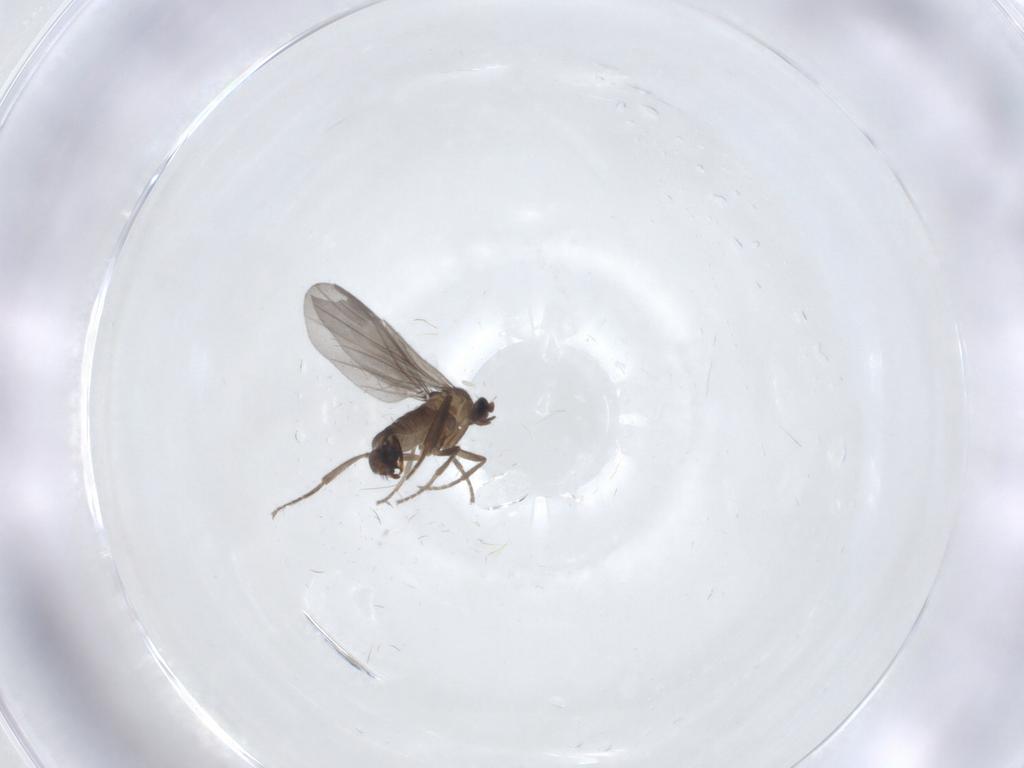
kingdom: Animalia
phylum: Arthropoda
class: Insecta
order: Diptera
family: Phoridae
